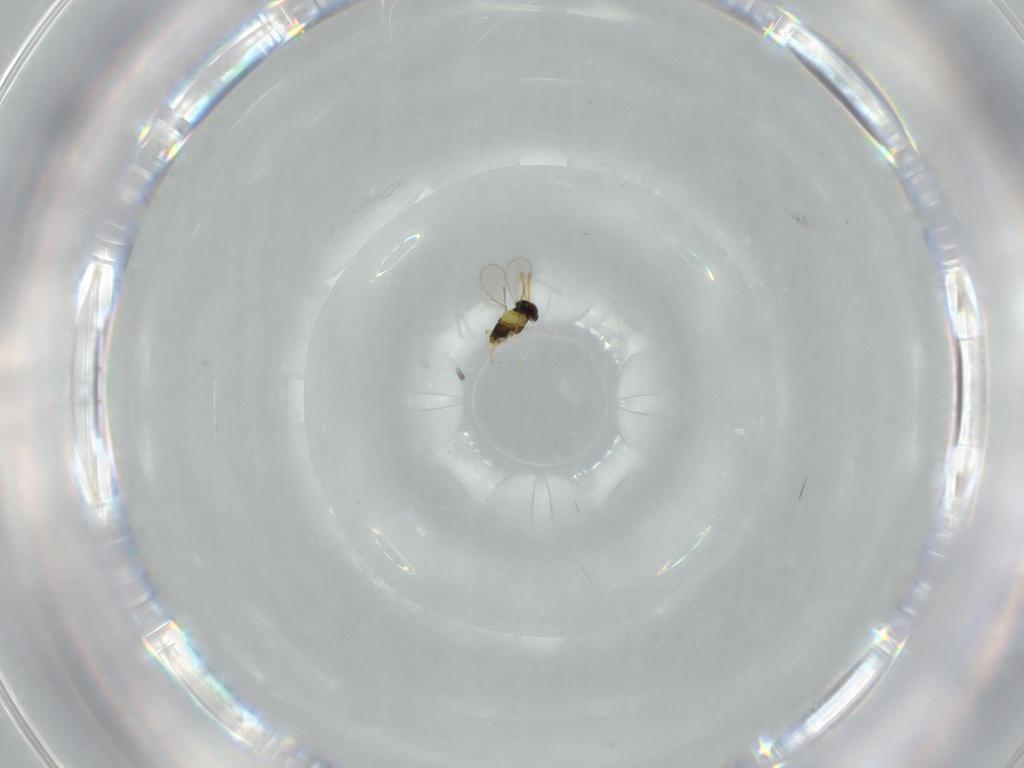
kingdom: Animalia
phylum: Arthropoda
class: Insecta
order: Hymenoptera
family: Aphelinidae
